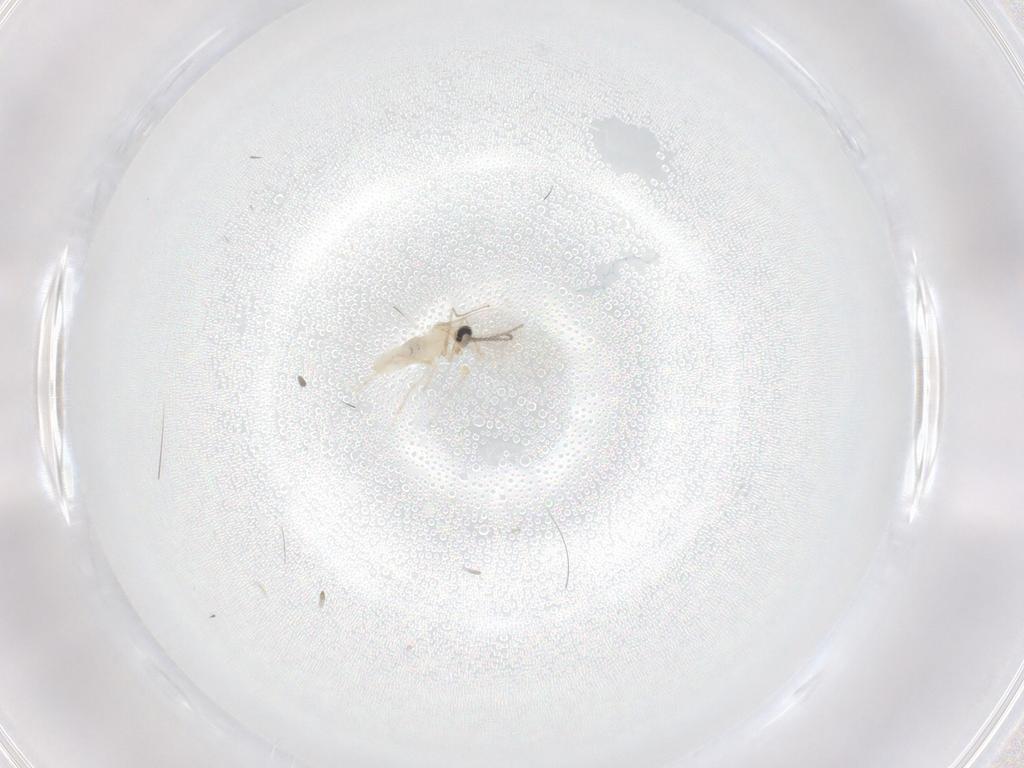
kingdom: Animalia
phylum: Arthropoda
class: Insecta
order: Diptera
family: Cecidomyiidae
